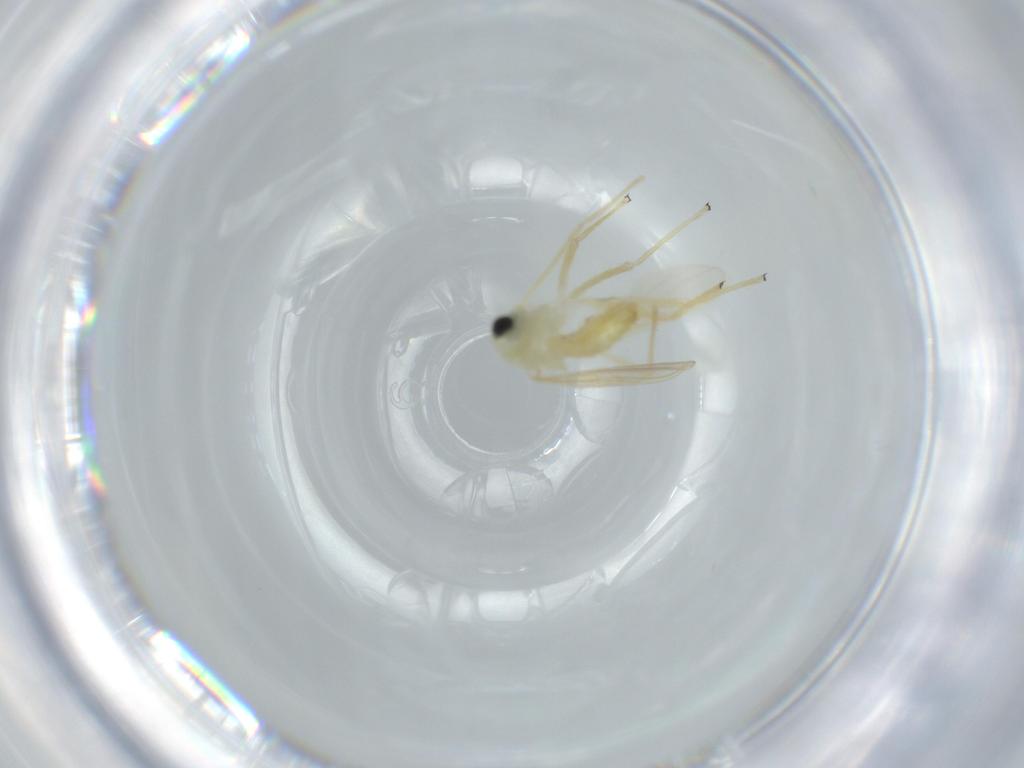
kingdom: Animalia
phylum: Arthropoda
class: Insecta
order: Diptera
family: Chironomidae
